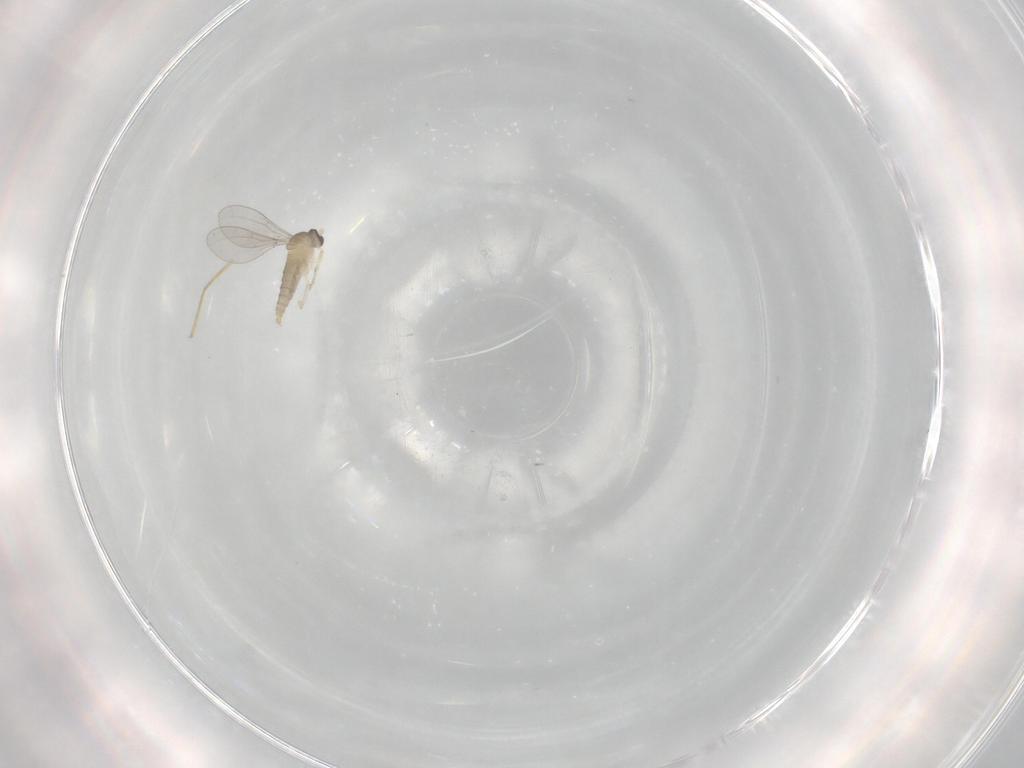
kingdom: Animalia
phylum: Arthropoda
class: Insecta
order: Diptera
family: Cecidomyiidae
